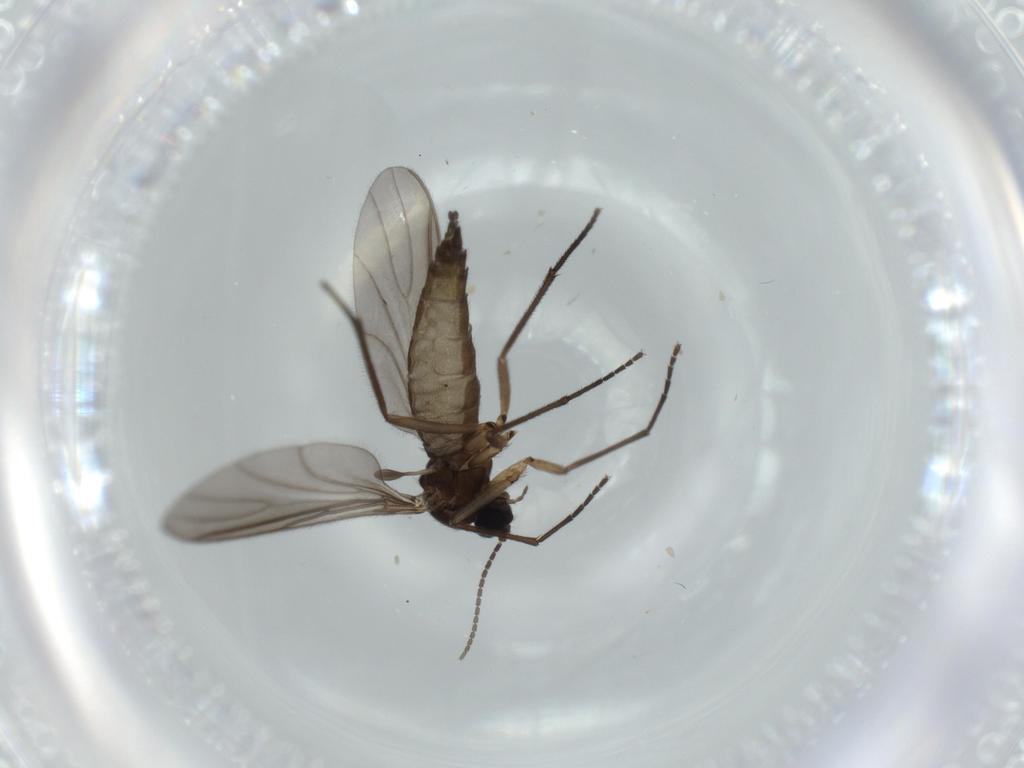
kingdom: Animalia
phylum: Arthropoda
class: Insecta
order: Diptera
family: Sciaridae
